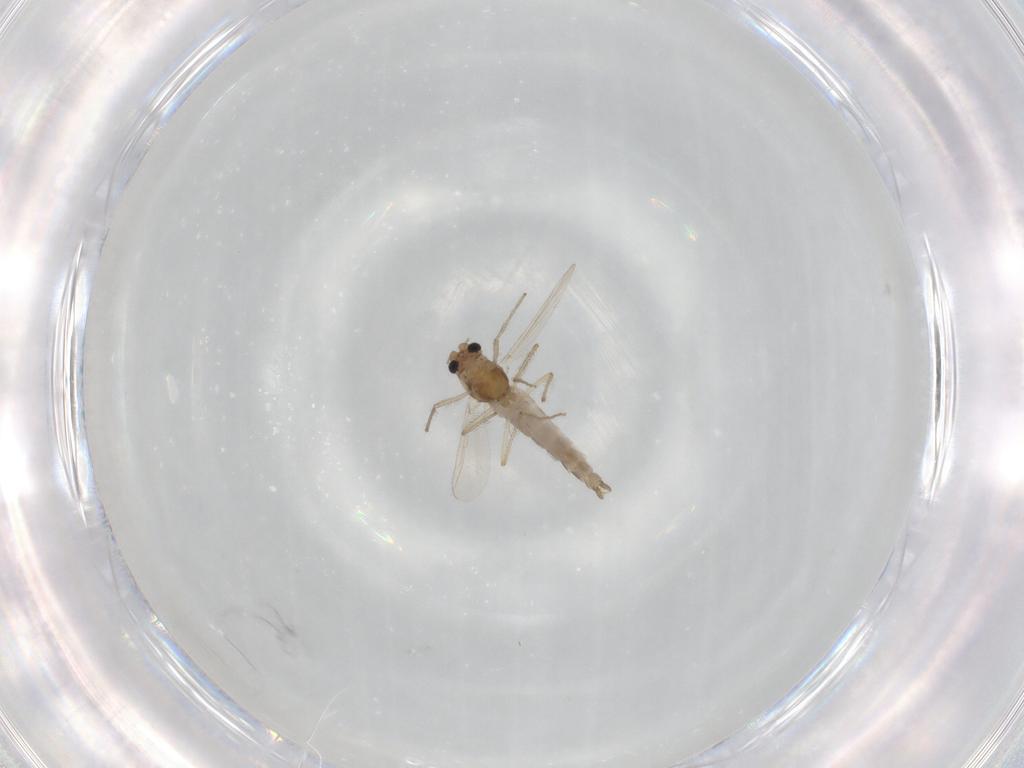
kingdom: Animalia
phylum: Arthropoda
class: Insecta
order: Diptera
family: Chironomidae
